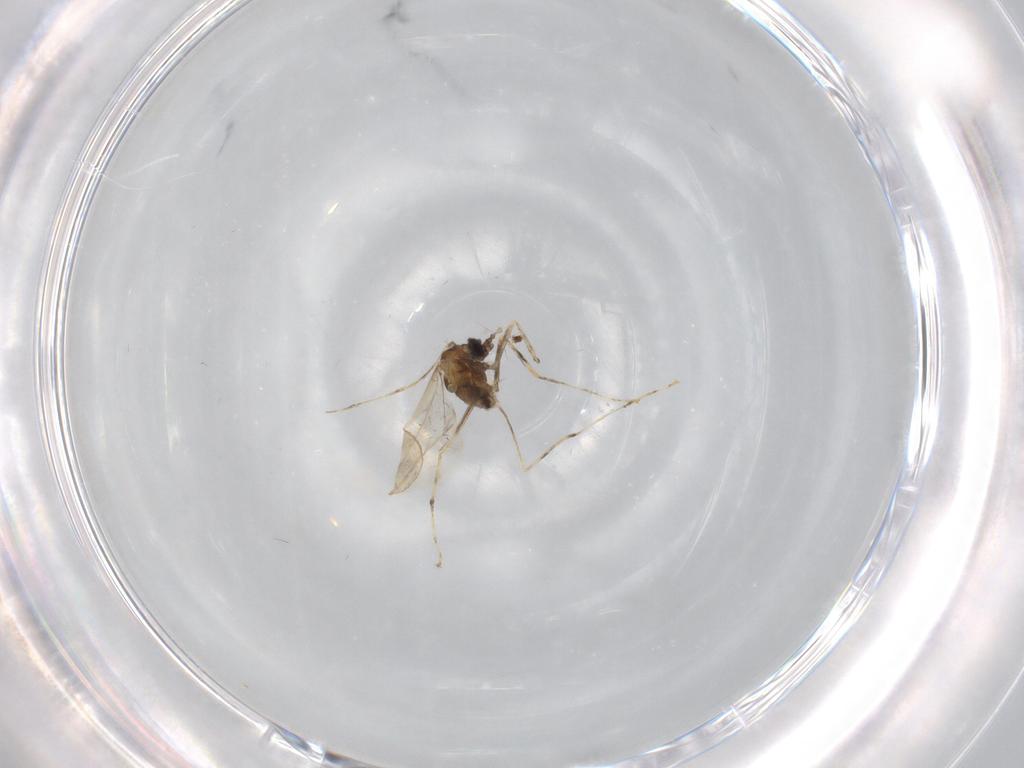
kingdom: Animalia
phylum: Arthropoda
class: Insecta
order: Diptera
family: Cecidomyiidae
